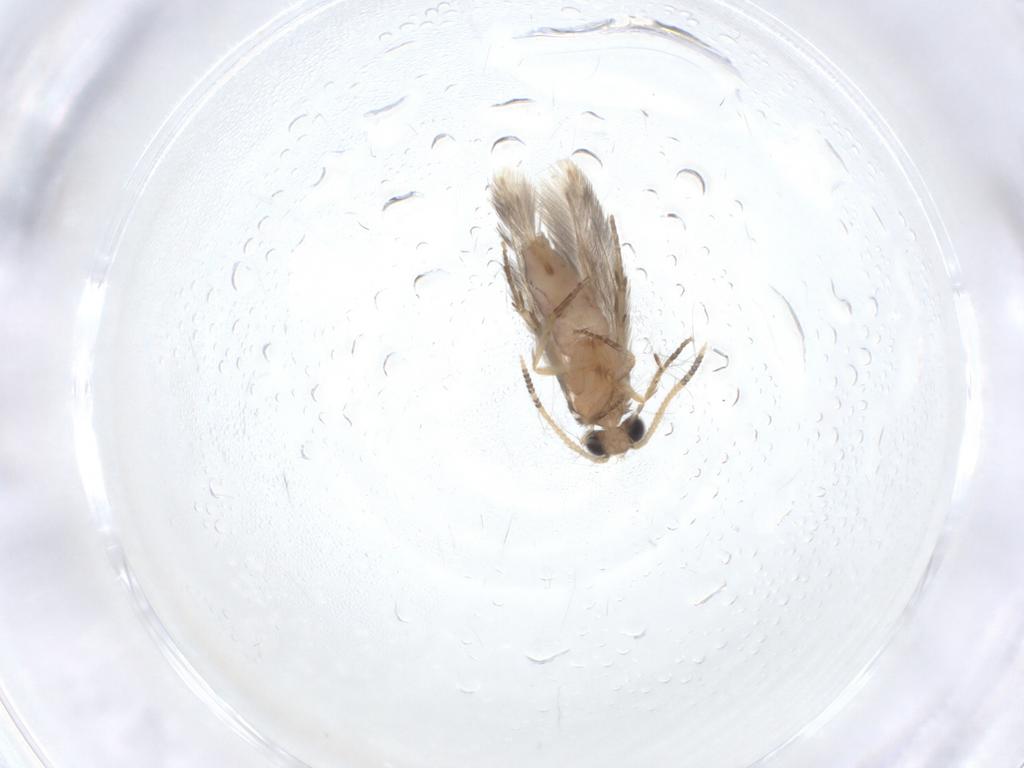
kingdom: Animalia
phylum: Arthropoda
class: Insecta
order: Trichoptera
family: Hydroptilidae
